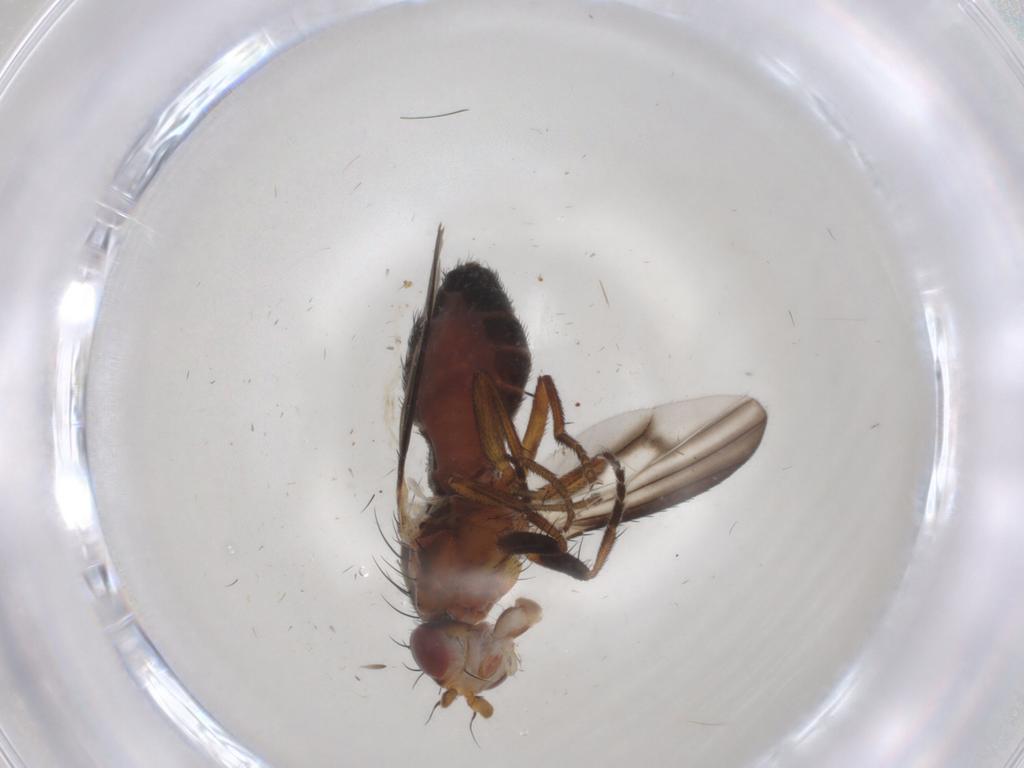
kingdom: Animalia
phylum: Arthropoda
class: Insecta
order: Diptera
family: Heleomyzidae
